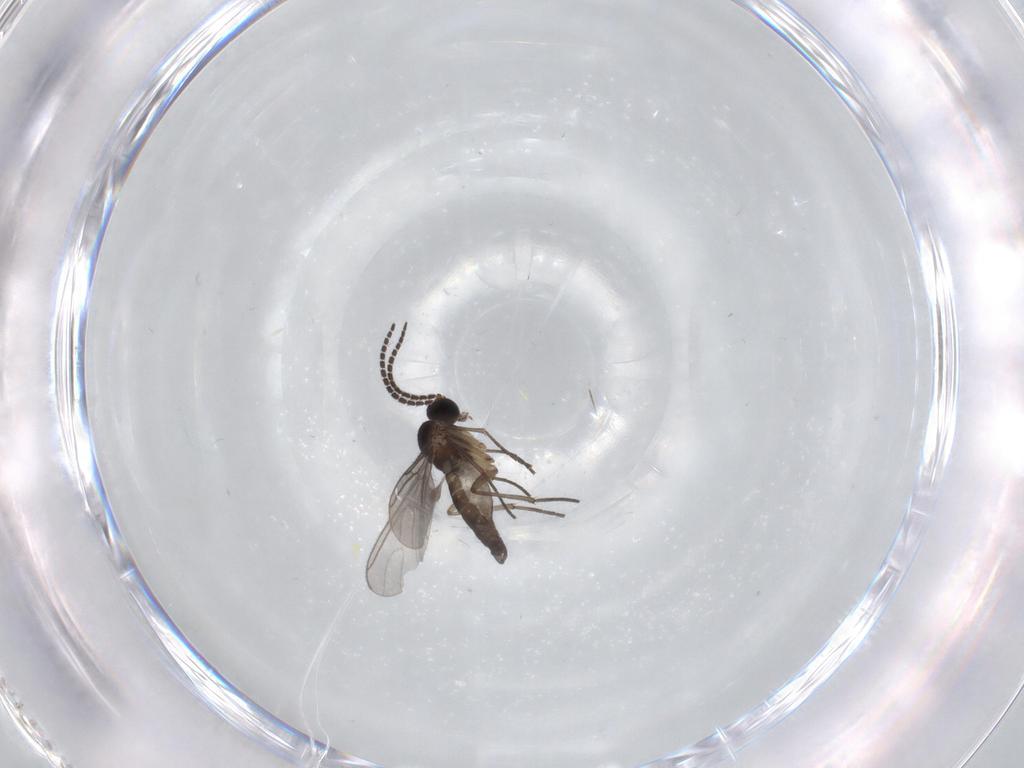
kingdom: Animalia
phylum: Arthropoda
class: Insecta
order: Diptera
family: Sciaridae
